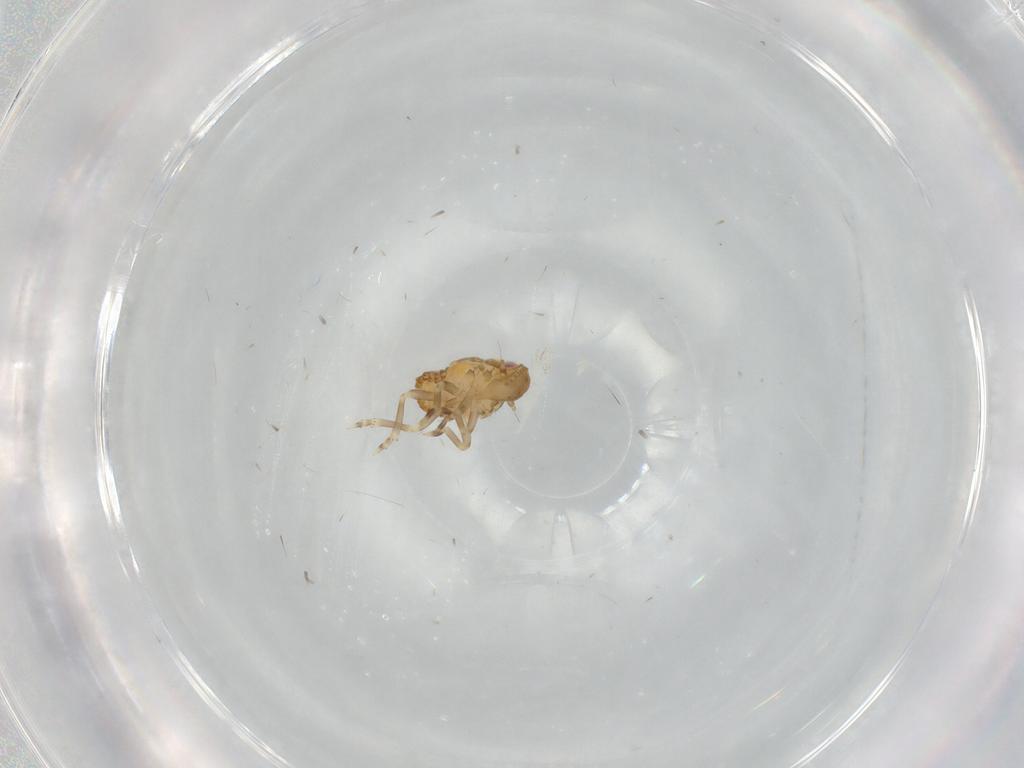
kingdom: Animalia
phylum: Arthropoda
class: Insecta
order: Hemiptera
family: Flatidae
